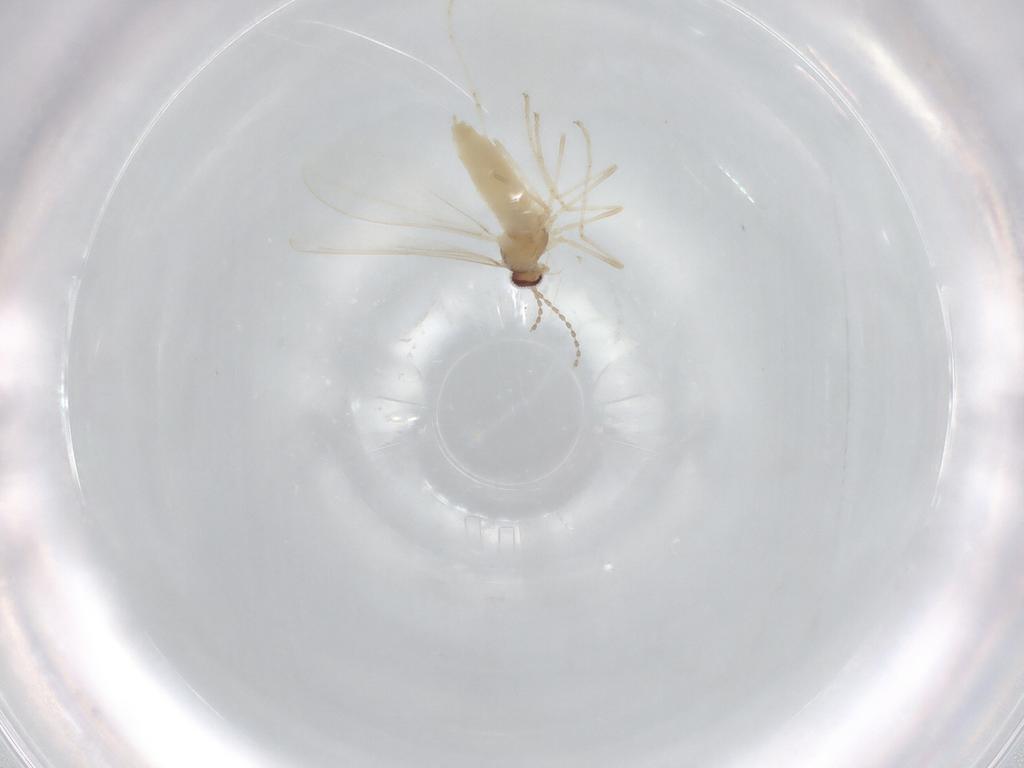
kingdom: Animalia
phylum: Arthropoda
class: Insecta
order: Diptera
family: Cecidomyiidae
